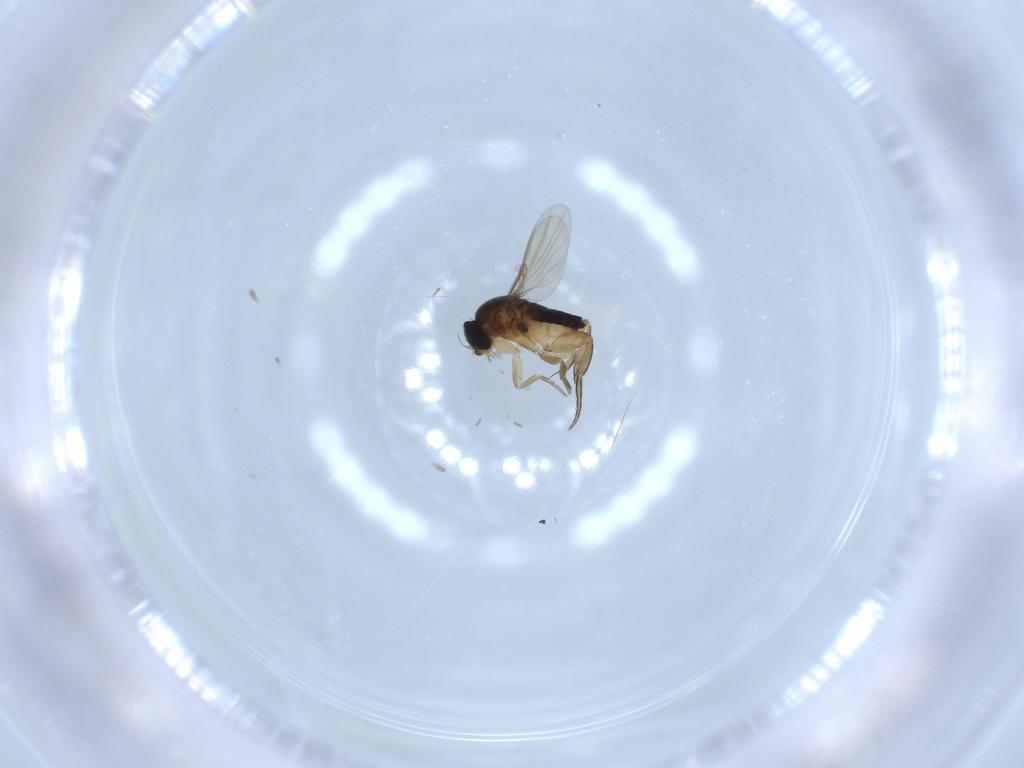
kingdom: Animalia
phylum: Arthropoda
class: Insecta
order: Diptera
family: Phoridae
